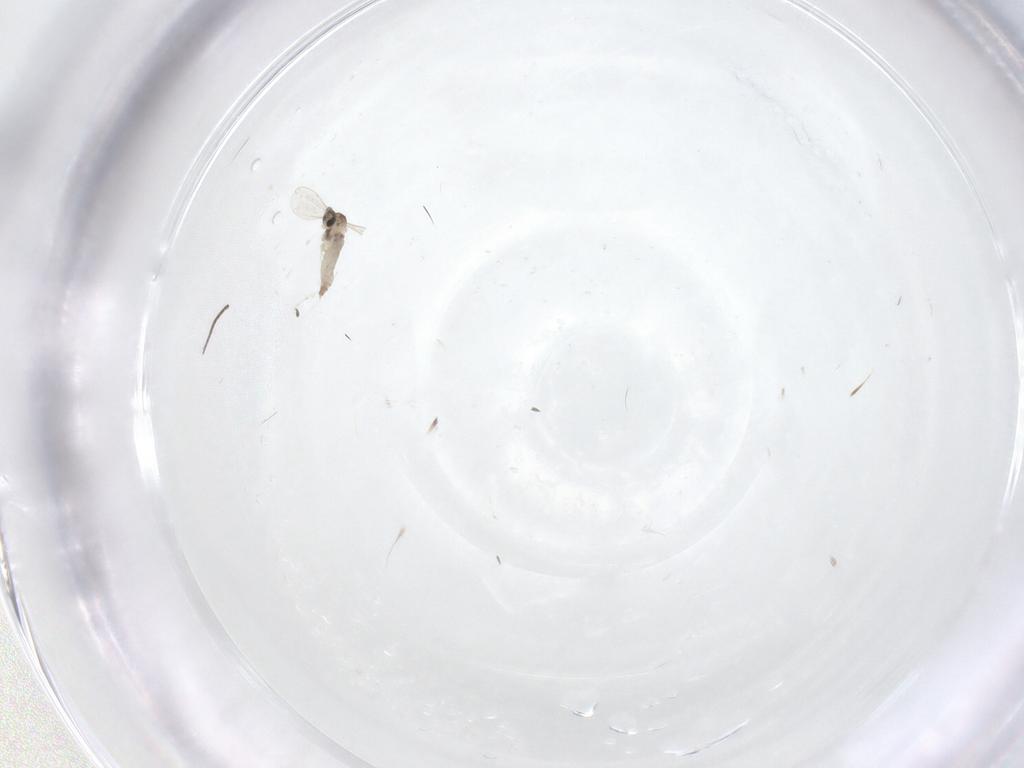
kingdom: Animalia
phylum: Arthropoda
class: Insecta
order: Diptera
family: Sciaridae
